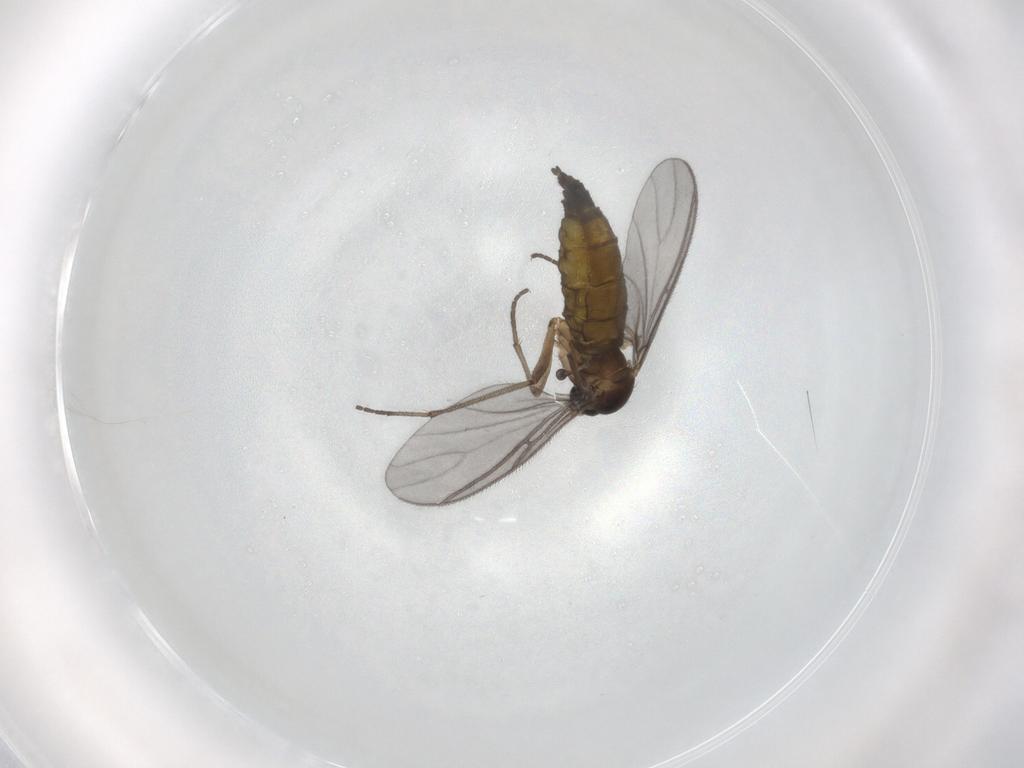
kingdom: Animalia
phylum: Arthropoda
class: Insecta
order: Diptera
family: Sciaridae
